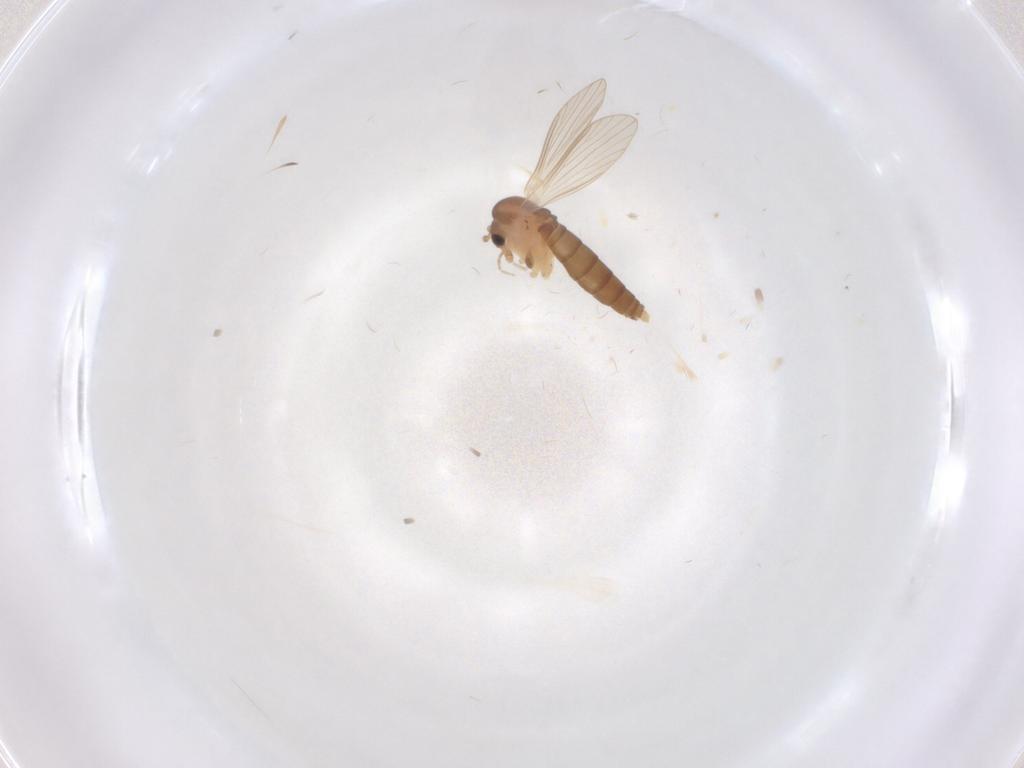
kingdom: Animalia
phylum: Arthropoda
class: Insecta
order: Diptera
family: Psychodidae
